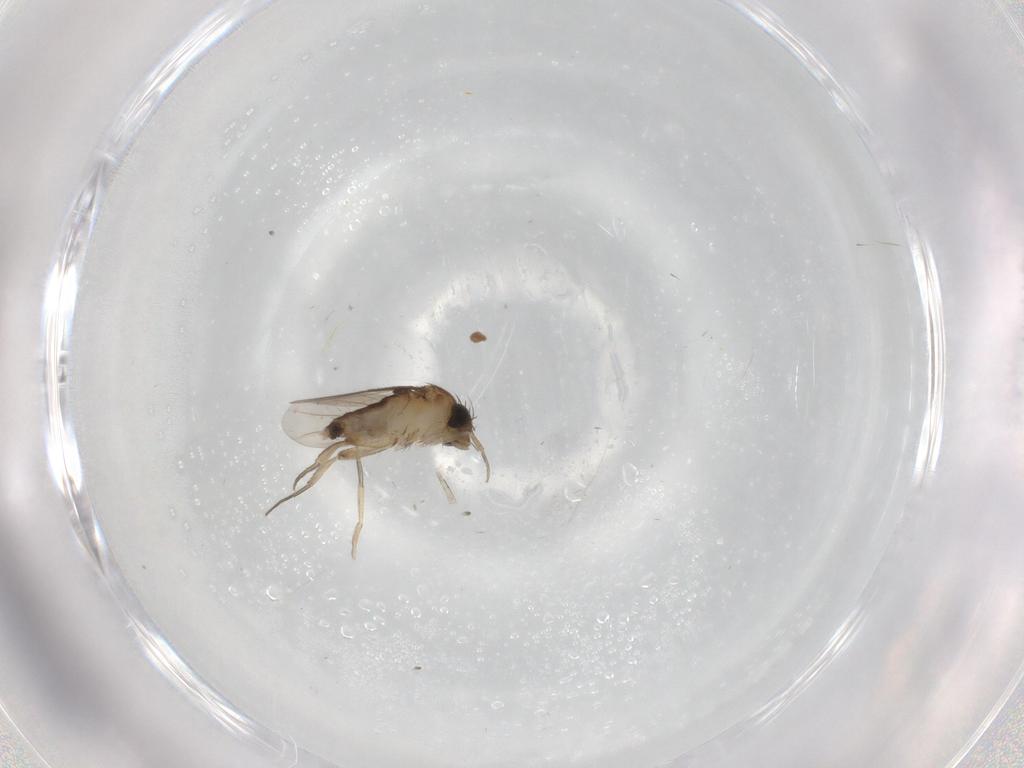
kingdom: Animalia
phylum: Arthropoda
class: Insecta
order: Diptera
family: Phoridae
